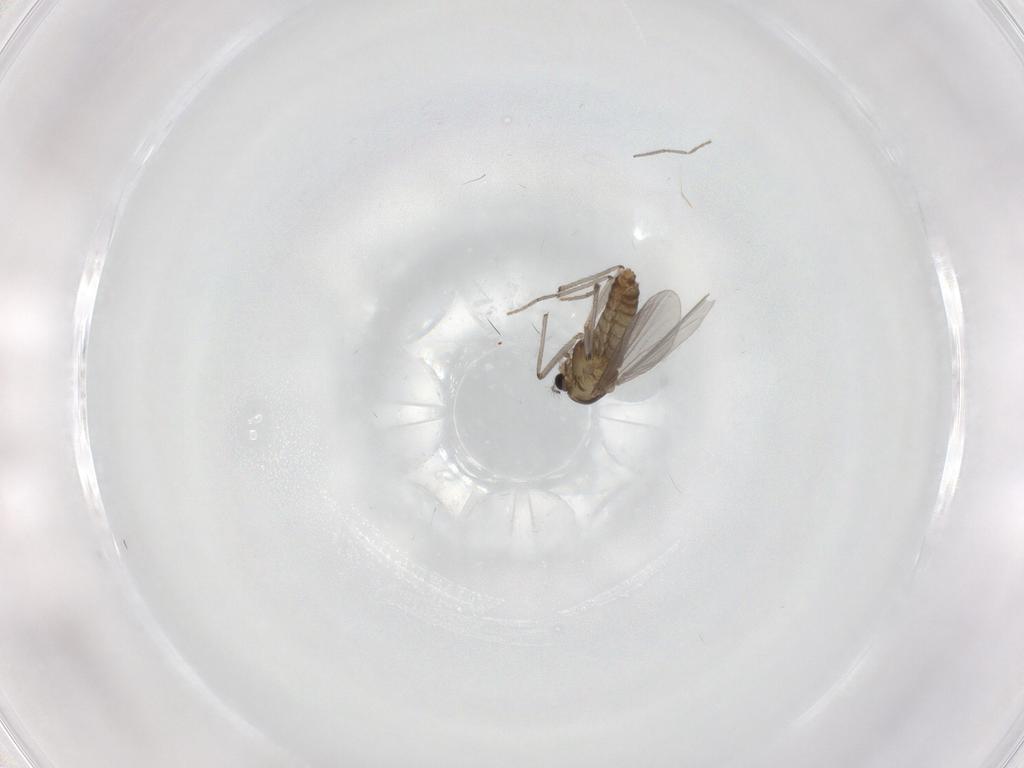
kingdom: Animalia
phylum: Arthropoda
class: Insecta
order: Diptera
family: Chironomidae
